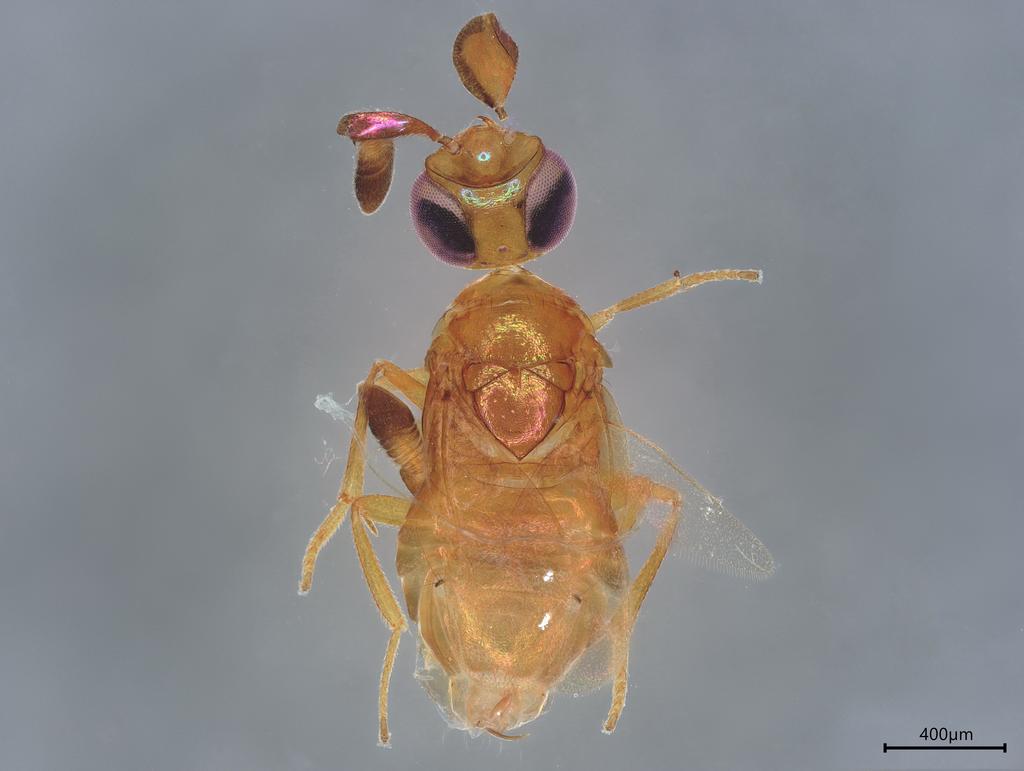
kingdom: Animalia
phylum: Arthropoda
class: Insecta
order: Hymenoptera
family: Encyrtidae
